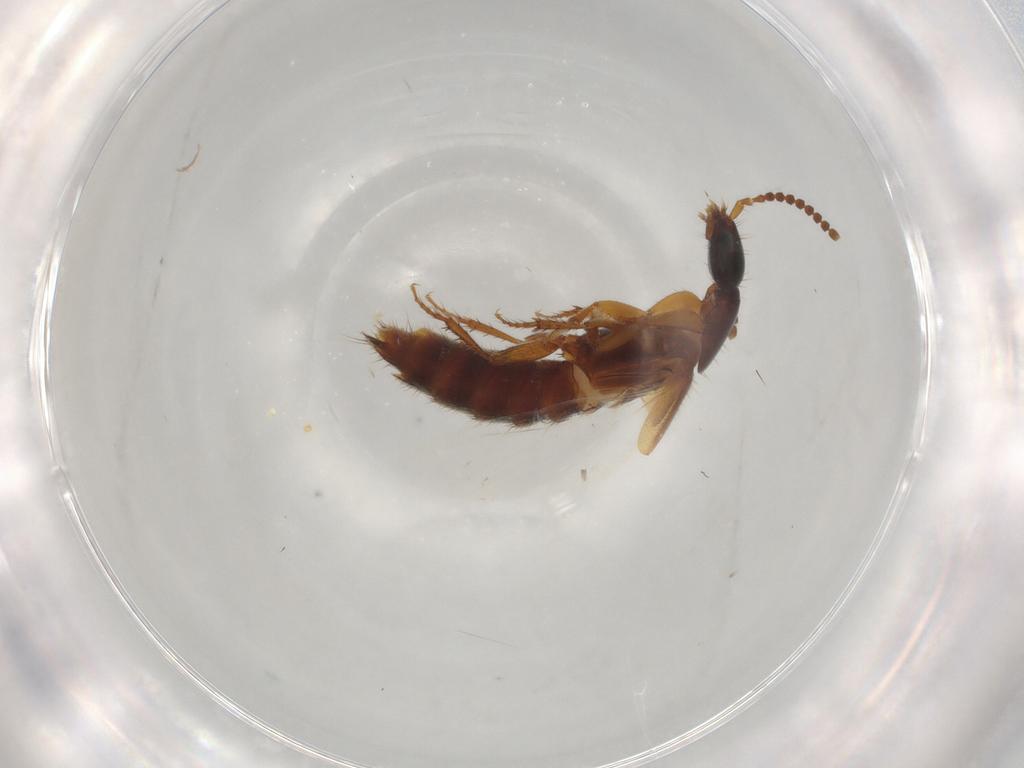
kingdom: Animalia
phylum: Arthropoda
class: Insecta
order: Coleoptera
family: Staphylinidae
